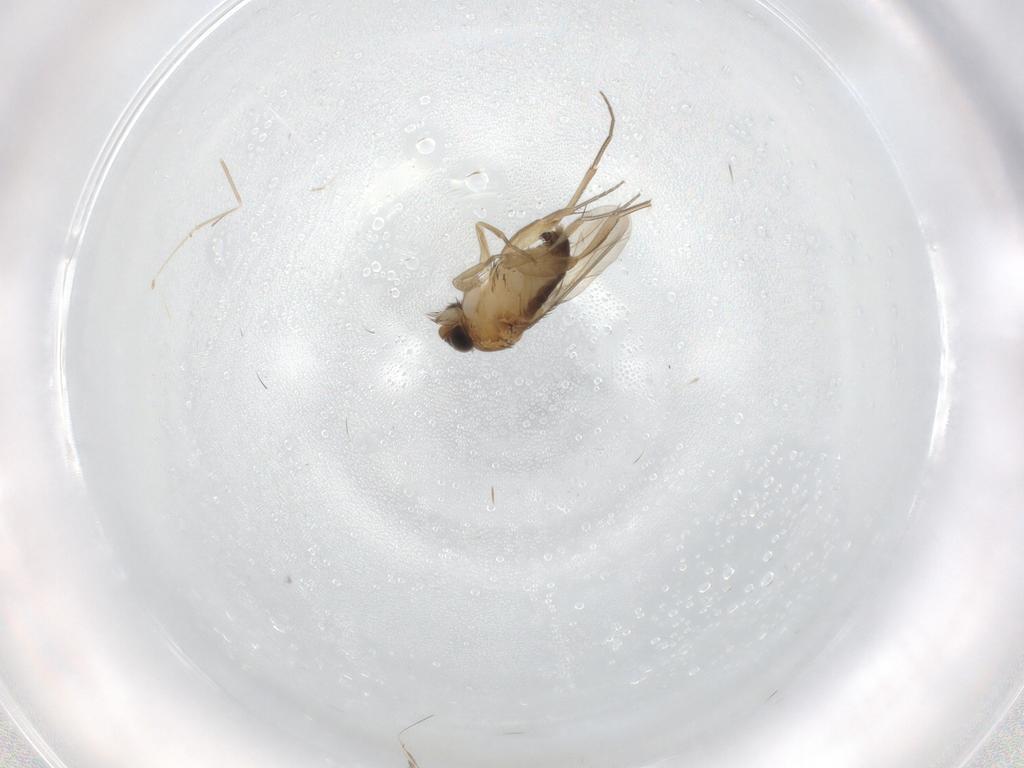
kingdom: Animalia
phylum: Arthropoda
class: Insecta
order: Diptera
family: Phoridae
